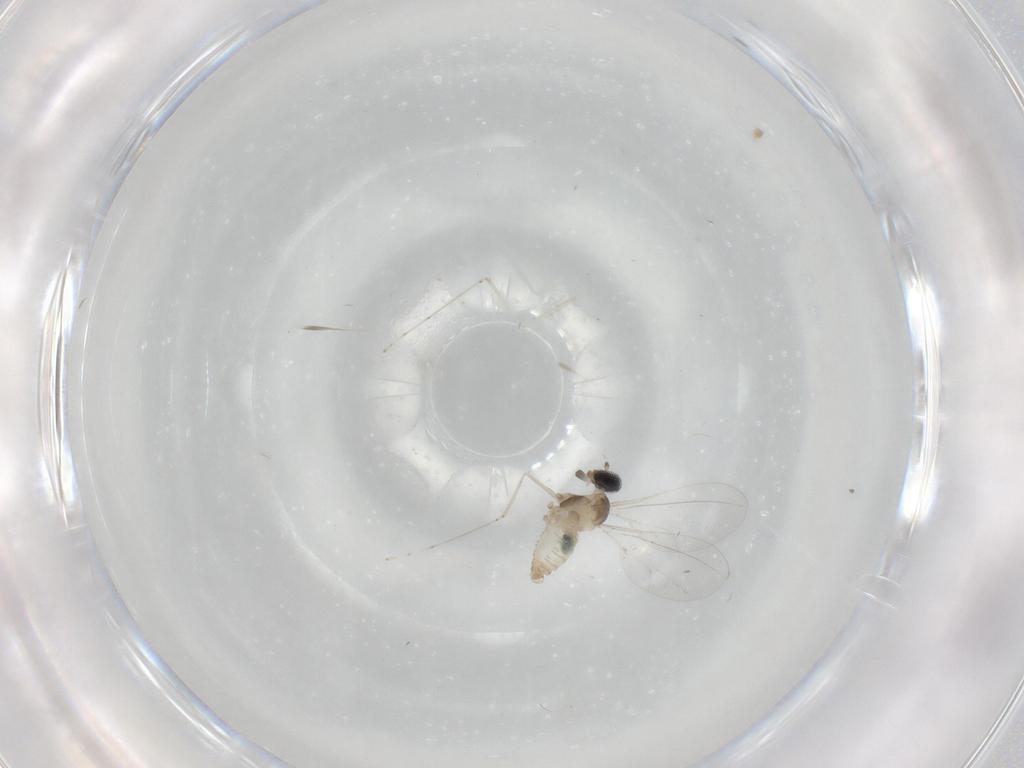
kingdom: Animalia
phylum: Arthropoda
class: Insecta
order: Diptera
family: Cecidomyiidae
